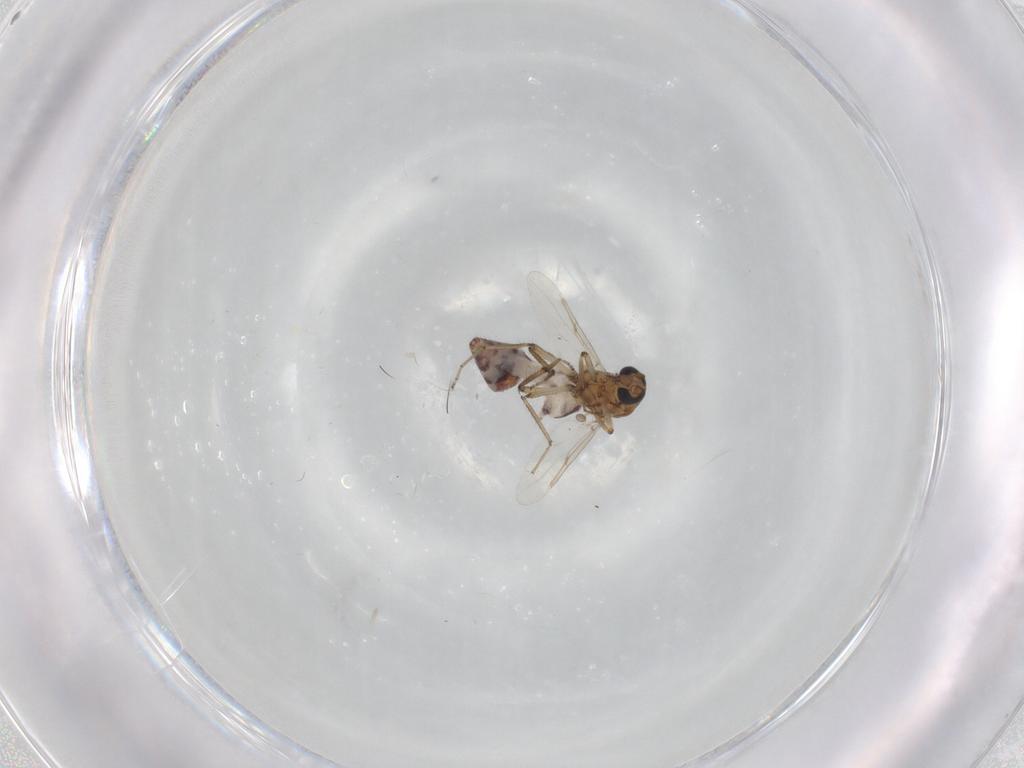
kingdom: Animalia
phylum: Arthropoda
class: Insecta
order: Diptera
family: Ceratopogonidae
